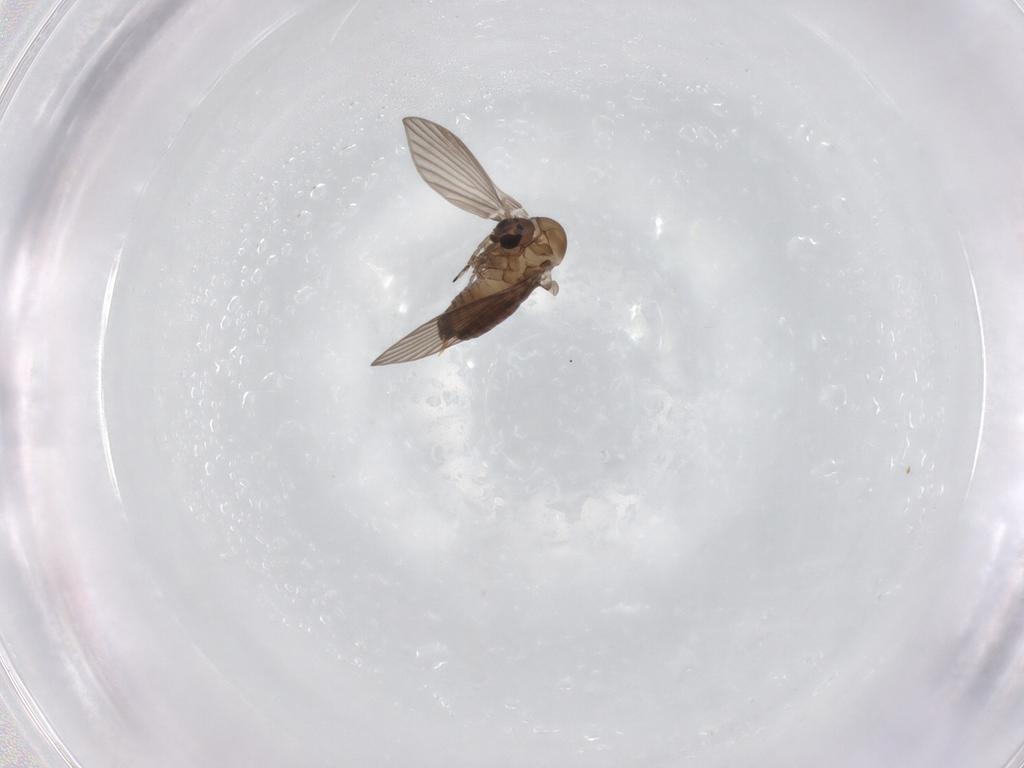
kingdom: Animalia
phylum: Arthropoda
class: Insecta
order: Diptera
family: Psychodidae
